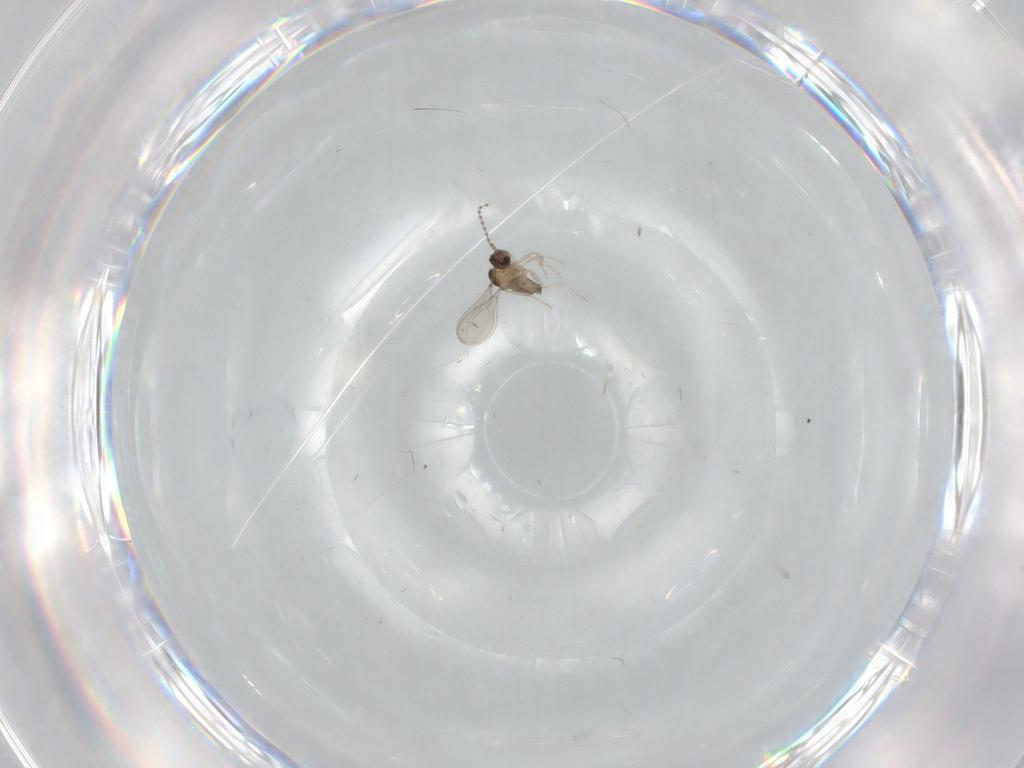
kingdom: Animalia
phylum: Arthropoda
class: Insecta
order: Diptera
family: Cecidomyiidae
